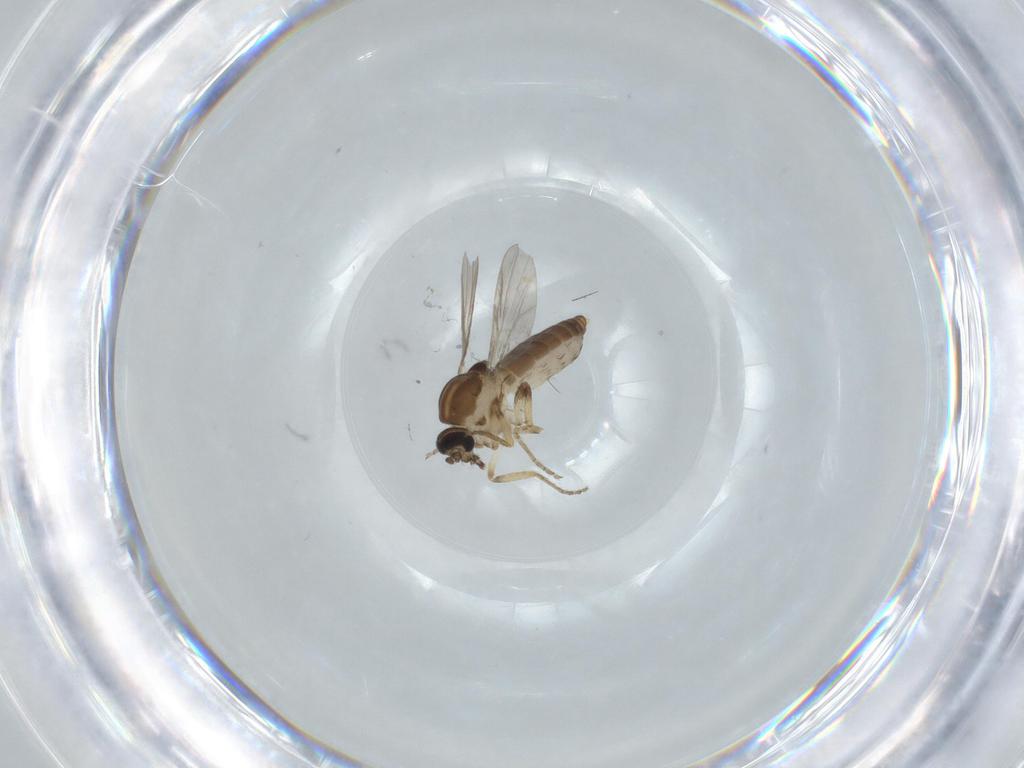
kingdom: Animalia
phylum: Arthropoda
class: Insecta
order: Diptera
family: Ceratopogonidae
